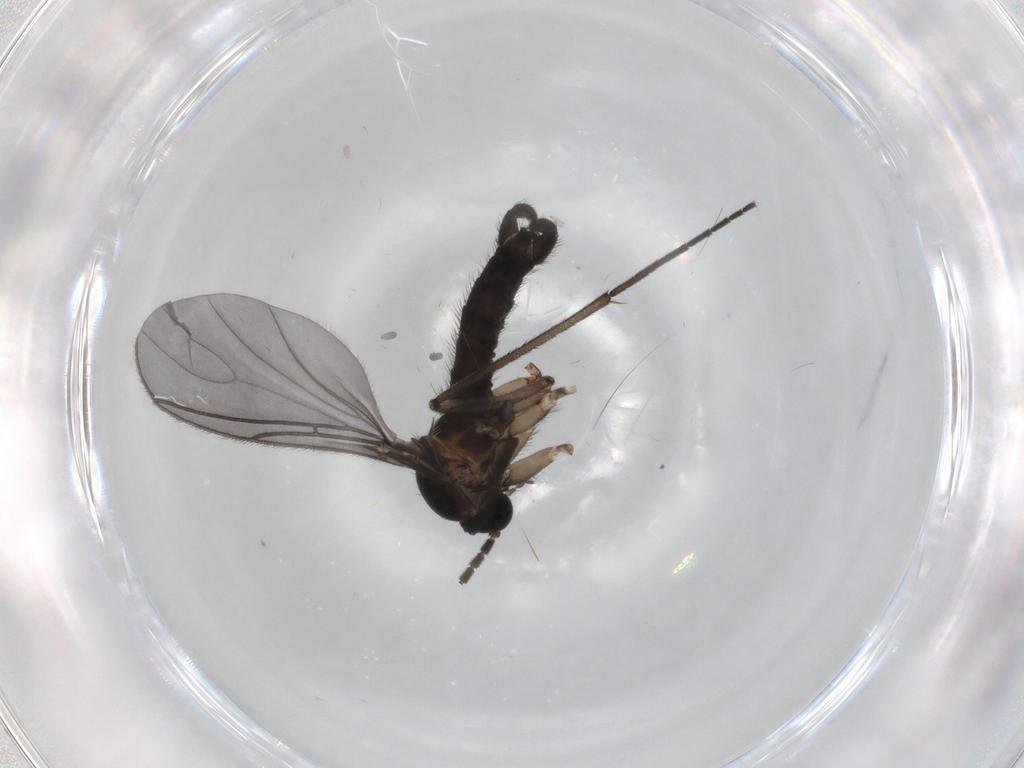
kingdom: Animalia
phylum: Arthropoda
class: Insecta
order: Diptera
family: Sciaridae
